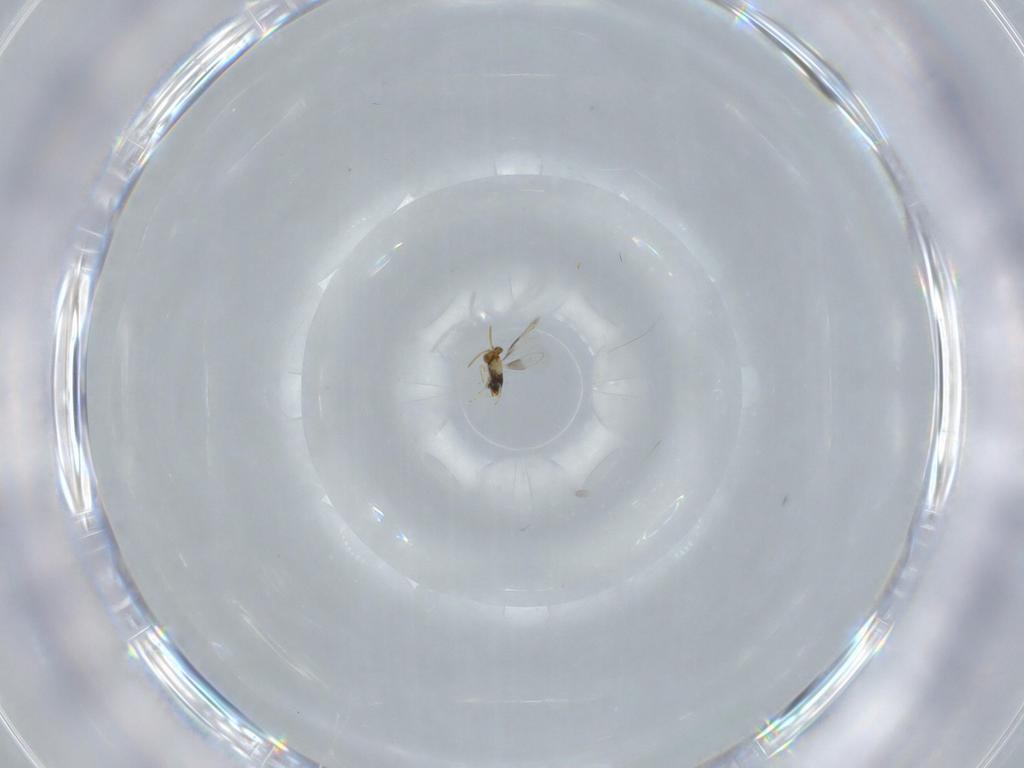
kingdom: Animalia
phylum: Arthropoda
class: Insecta
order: Hymenoptera
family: Aphelinidae
